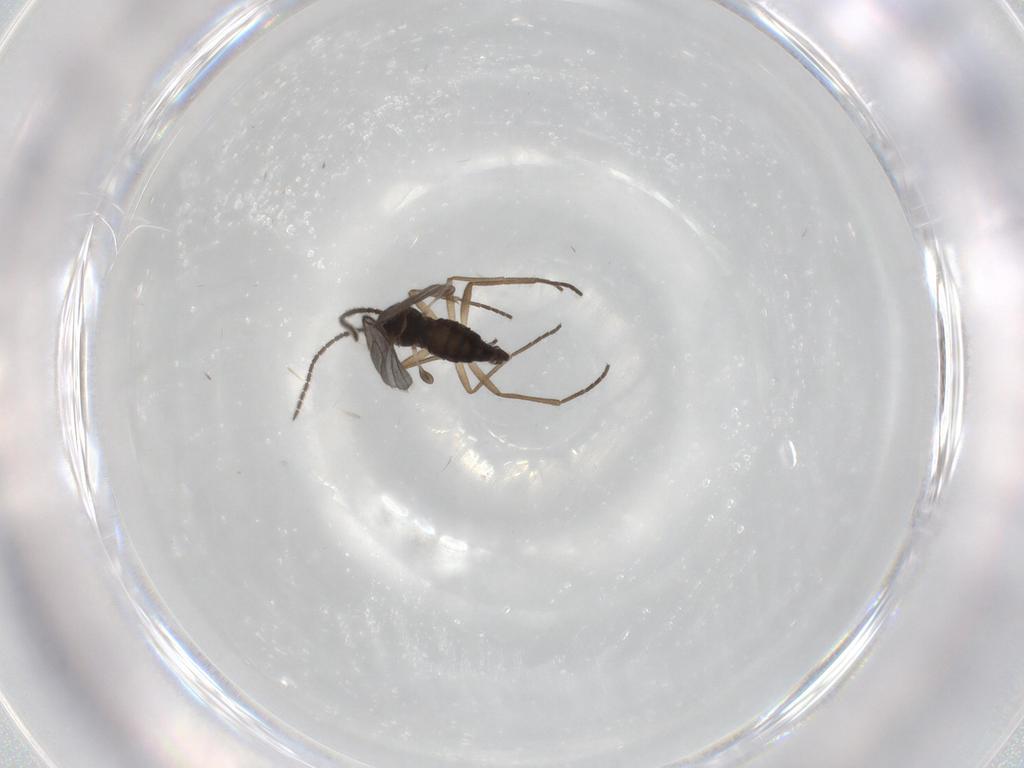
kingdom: Animalia
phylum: Arthropoda
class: Insecta
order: Diptera
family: Sciaridae
